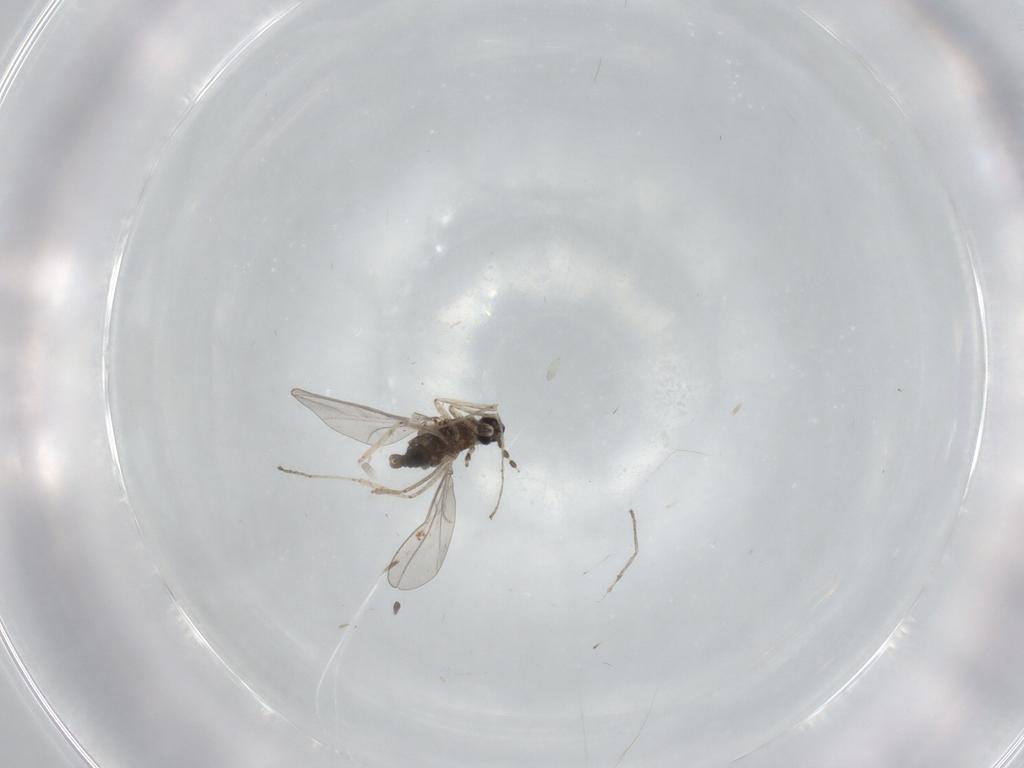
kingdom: Animalia
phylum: Arthropoda
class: Insecta
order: Diptera
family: Cecidomyiidae
